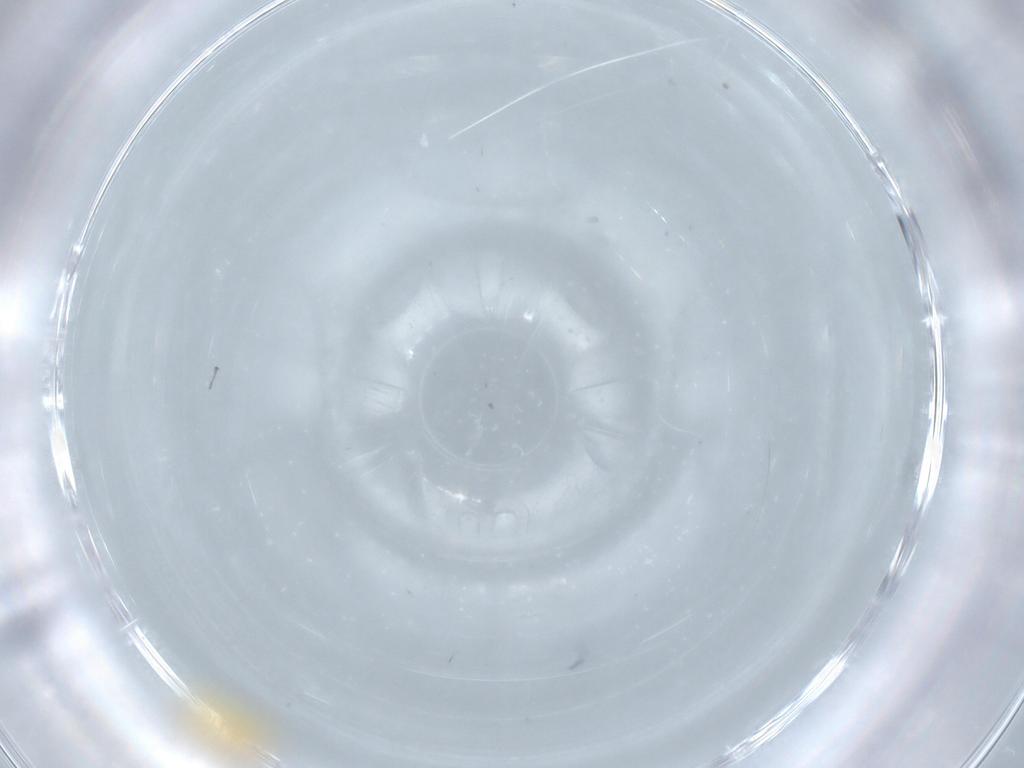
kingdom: Animalia
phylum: Arthropoda
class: Insecta
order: Diptera
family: Chironomidae
